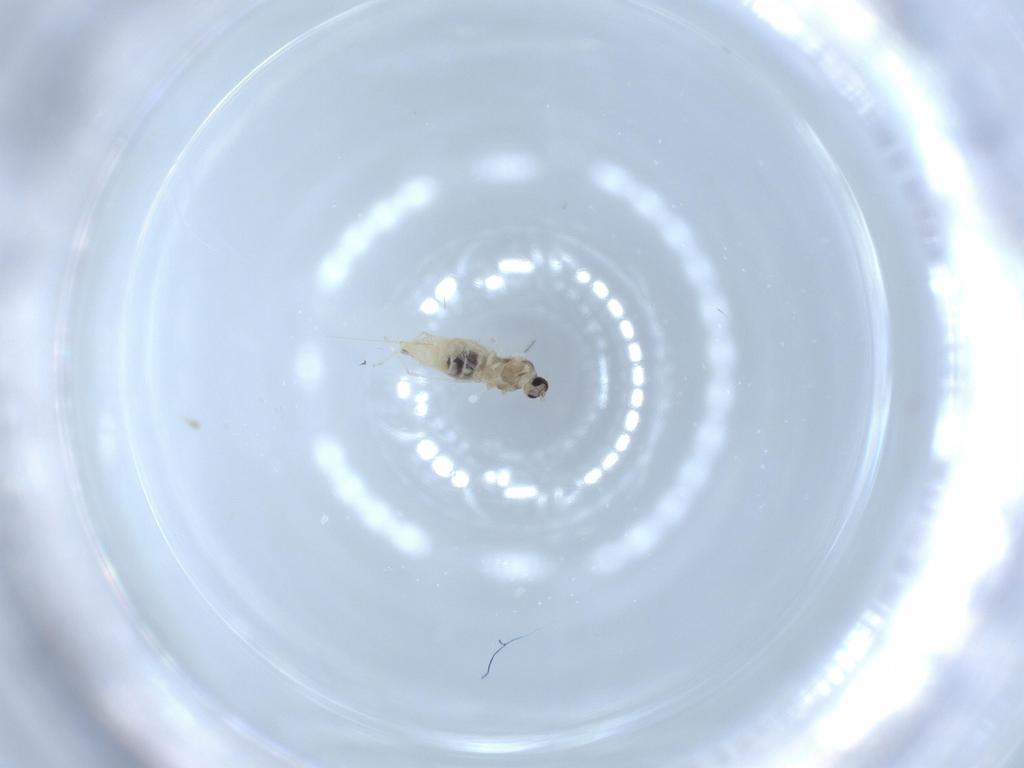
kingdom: Animalia
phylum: Arthropoda
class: Insecta
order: Diptera
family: Cecidomyiidae
